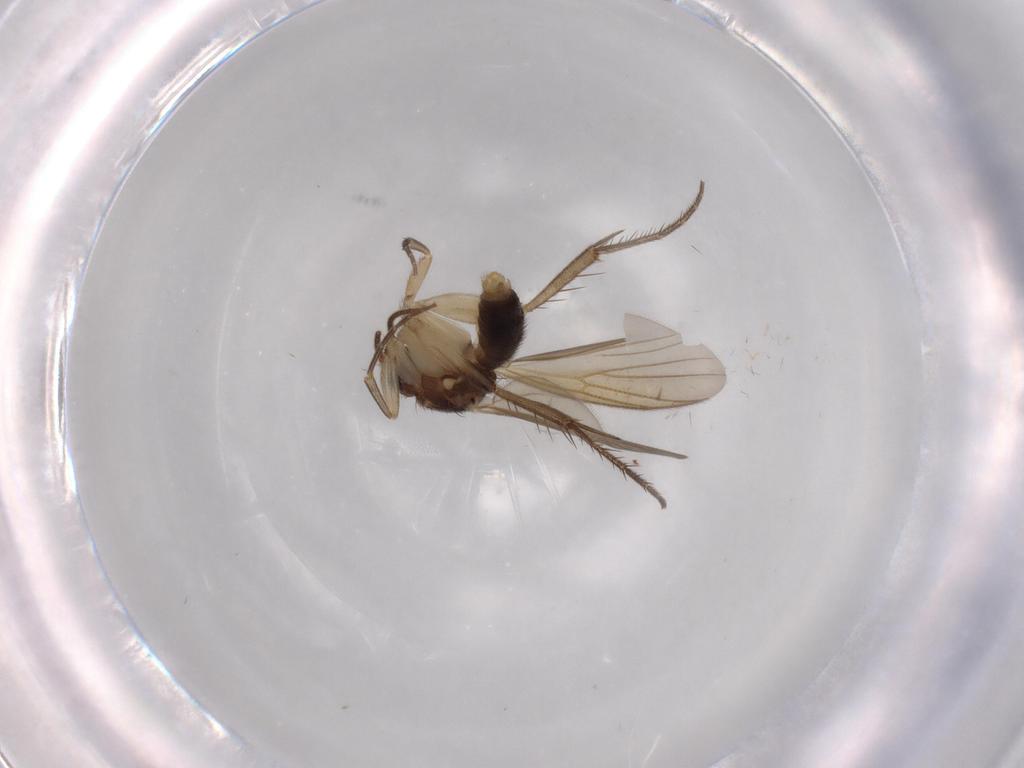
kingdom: Animalia
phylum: Arthropoda
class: Insecta
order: Diptera
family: Mycetophilidae
